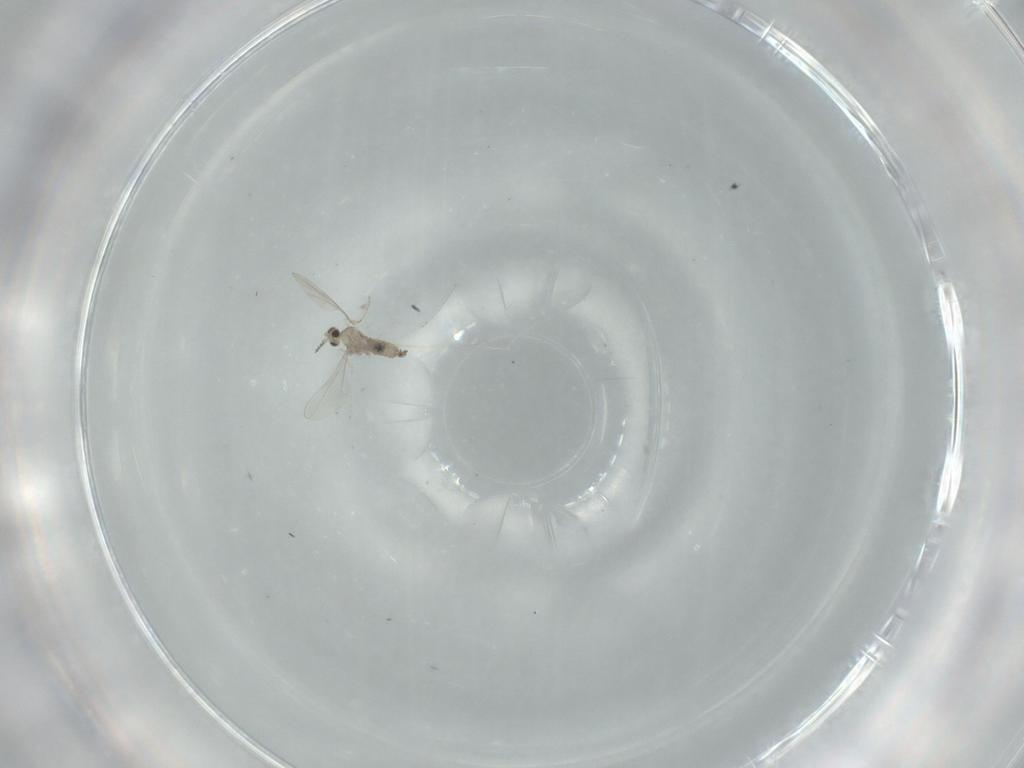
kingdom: Animalia
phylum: Arthropoda
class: Insecta
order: Diptera
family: Cecidomyiidae
